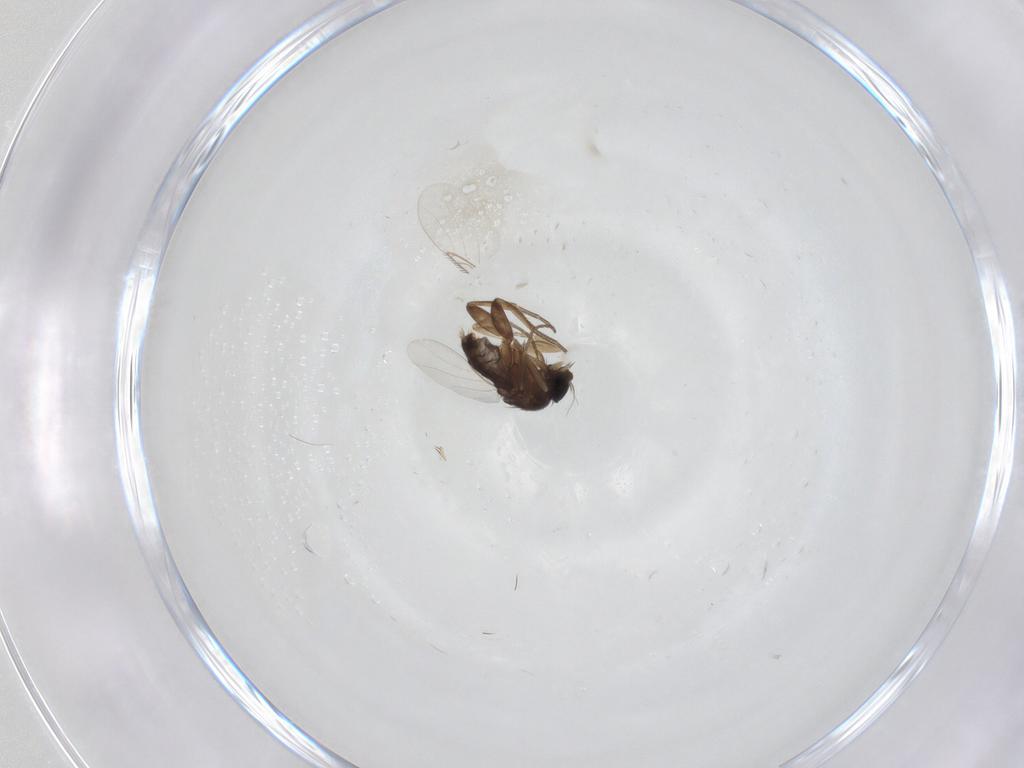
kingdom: Animalia
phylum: Arthropoda
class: Insecta
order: Diptera
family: Phoridae
